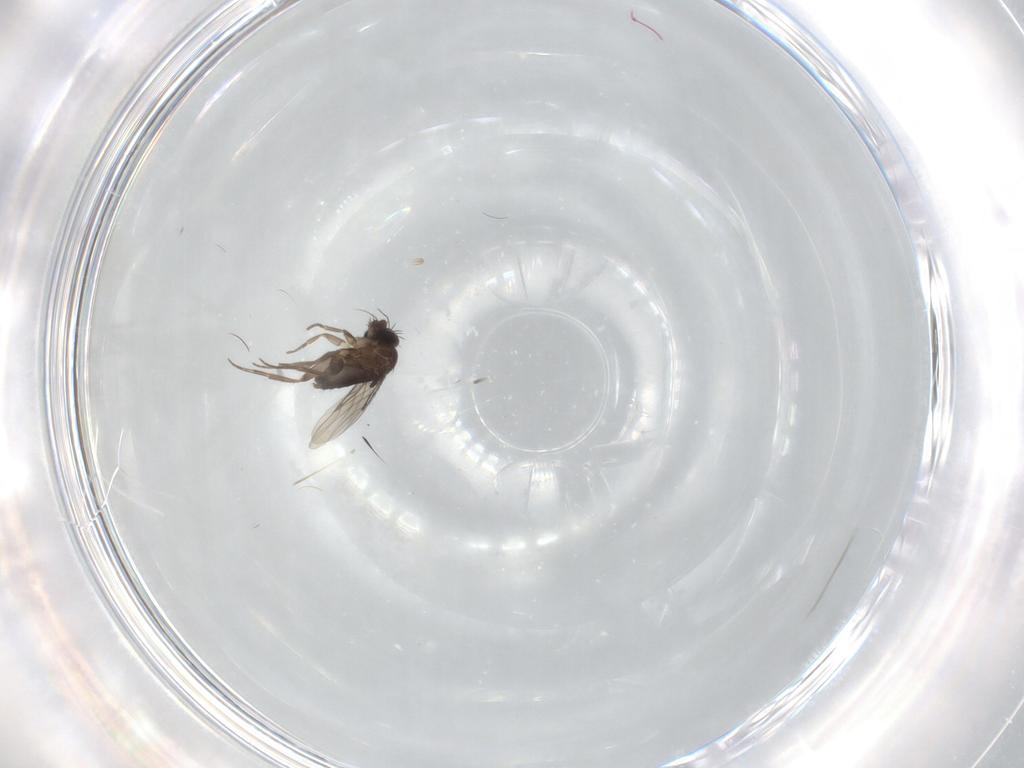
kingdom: Animalia
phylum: Arthropoda
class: Insecta
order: Diptera
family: Phoridae
